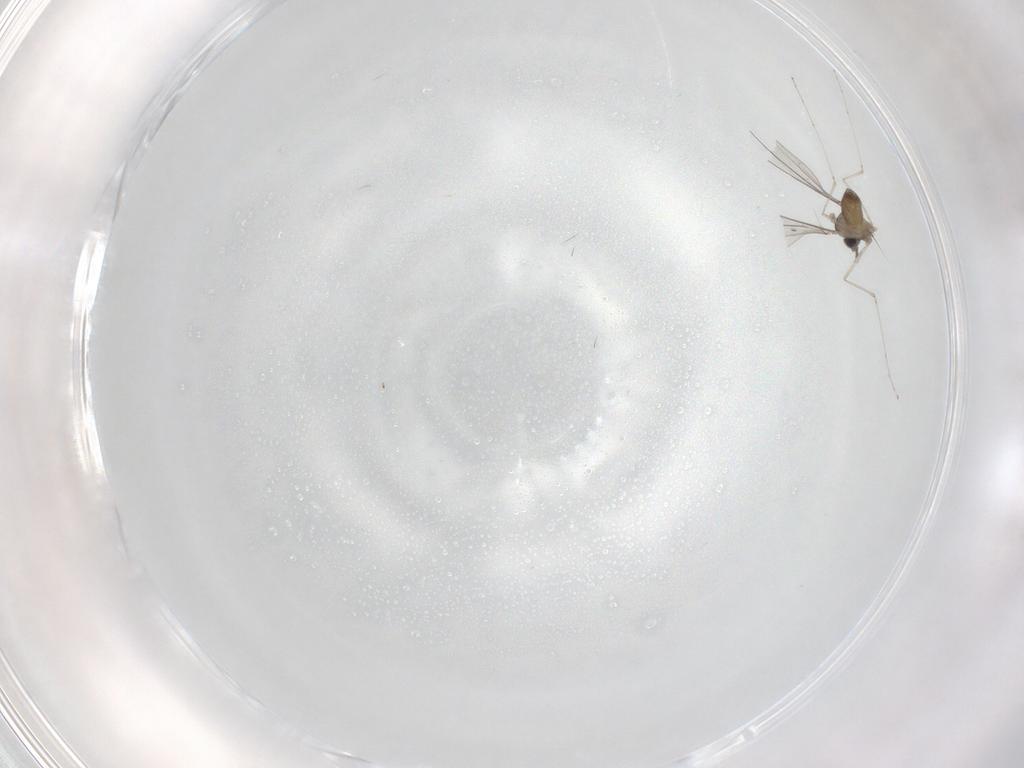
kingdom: Animalia
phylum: Arthropoda
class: Insecta
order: Diptera
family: Cecidomyiidae
